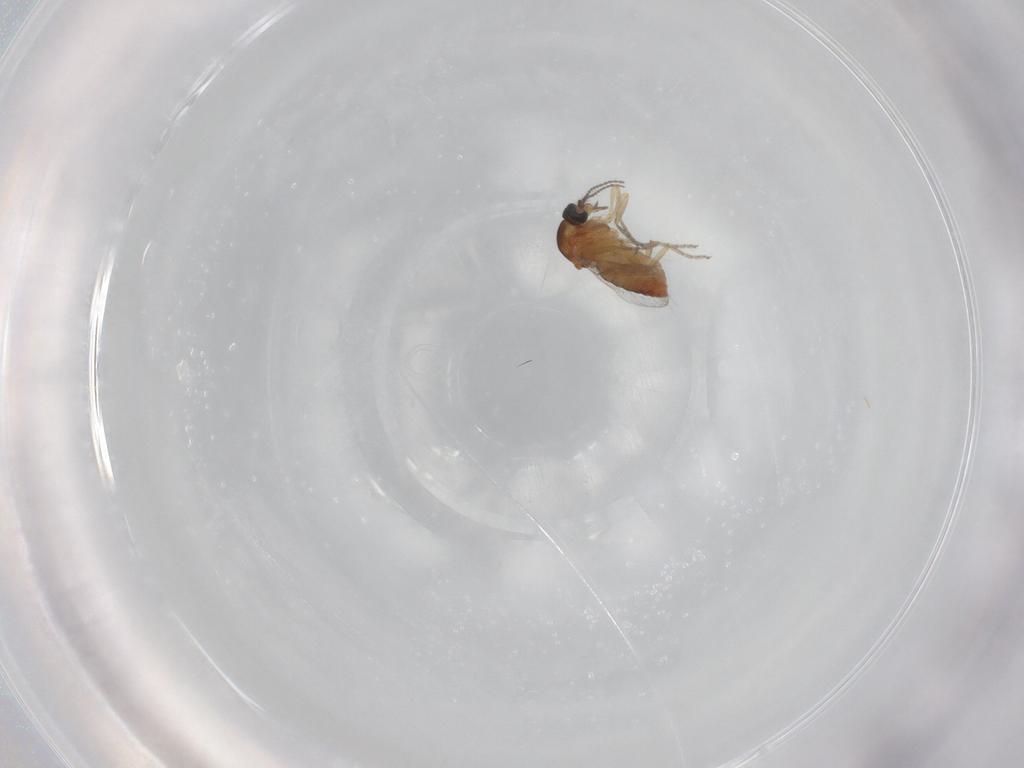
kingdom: Animalia
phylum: Arthropoda
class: Insecta
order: Diptera
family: Ceratopogonidae
